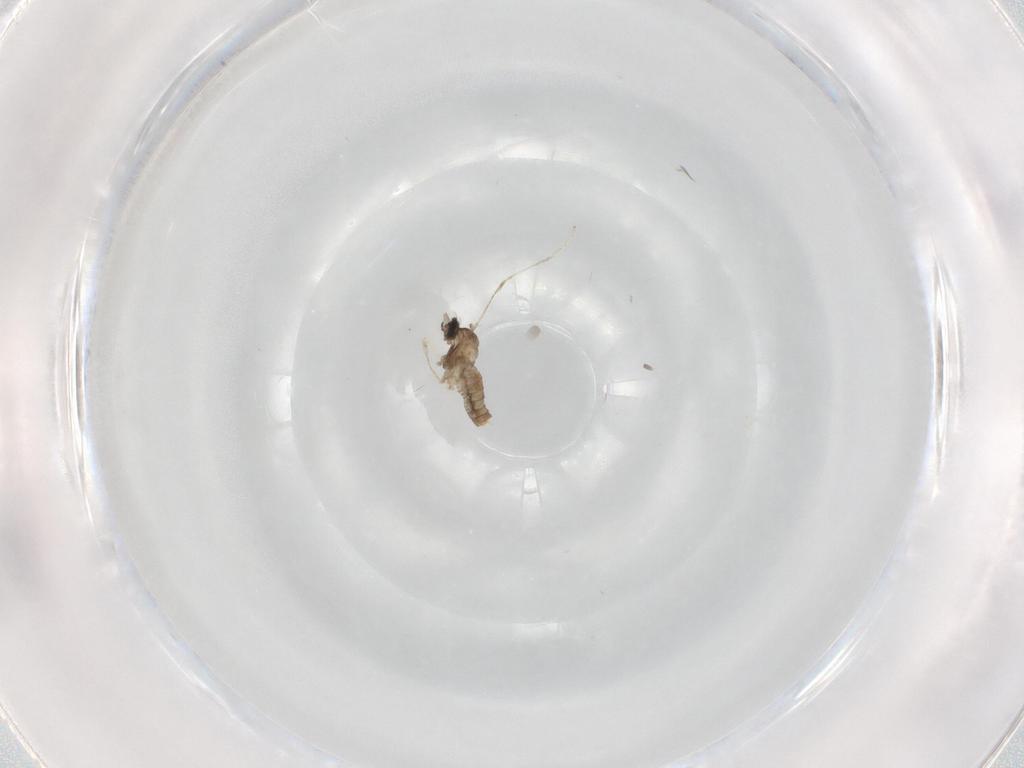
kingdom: Animalia
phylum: Arthropoda
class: Insecta
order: Diptera
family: Cecidomyiidae
